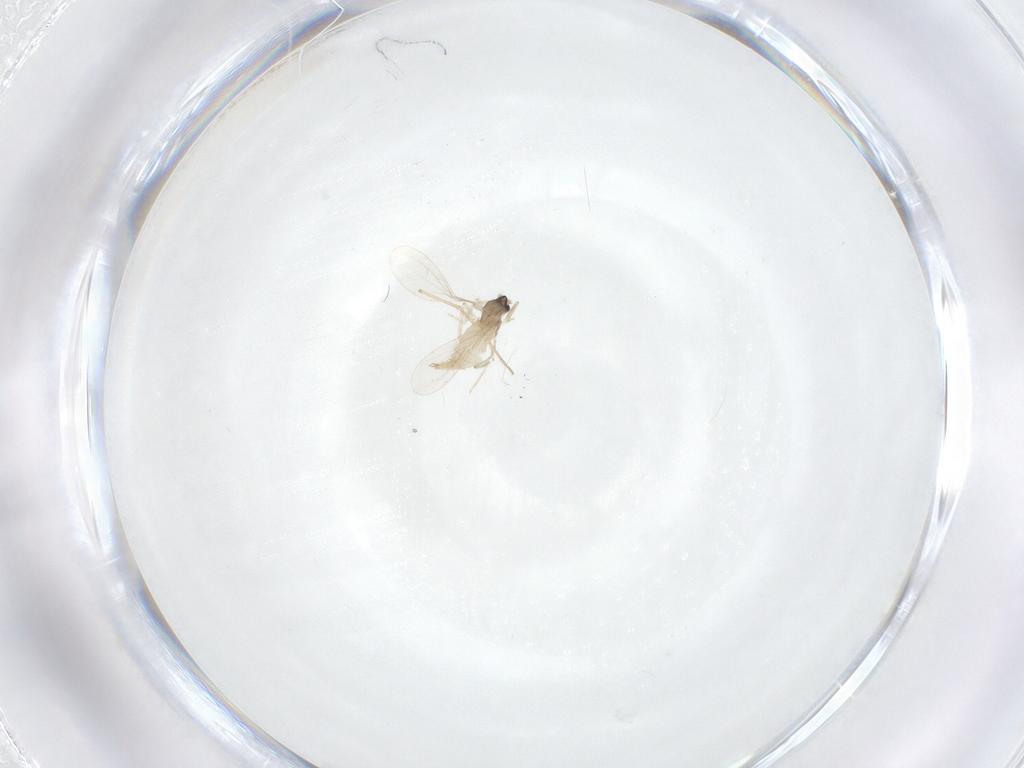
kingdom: Animalia
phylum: Arthropoda
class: Insecta
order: Diptera
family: Cecidomyiidae
